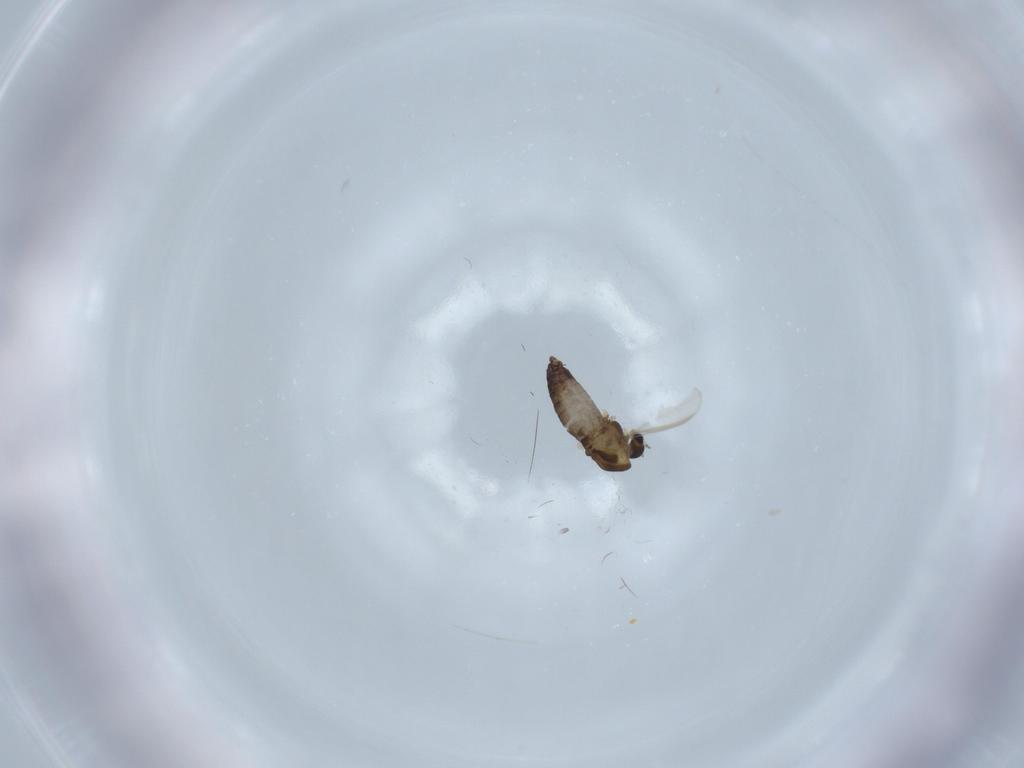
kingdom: Animalia
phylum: Arthropoda
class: Insecta
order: Diptera
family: Chironomidae
